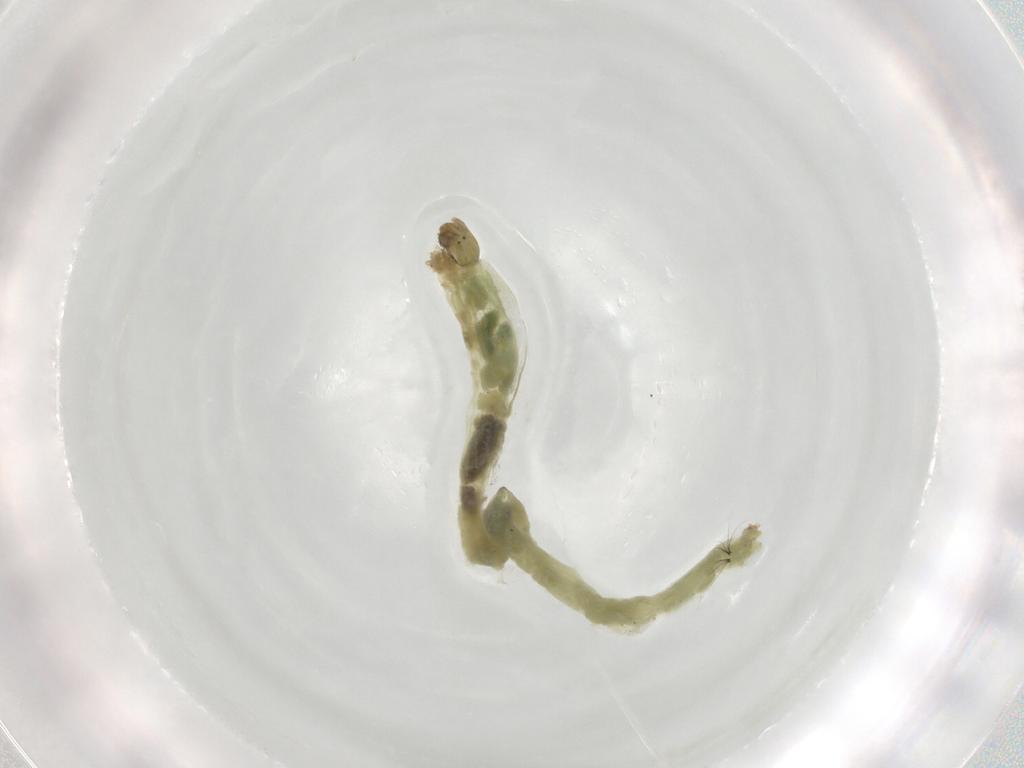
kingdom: Animalia
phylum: Arthropoda
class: Insecta
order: Diptera
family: Chironomidae
